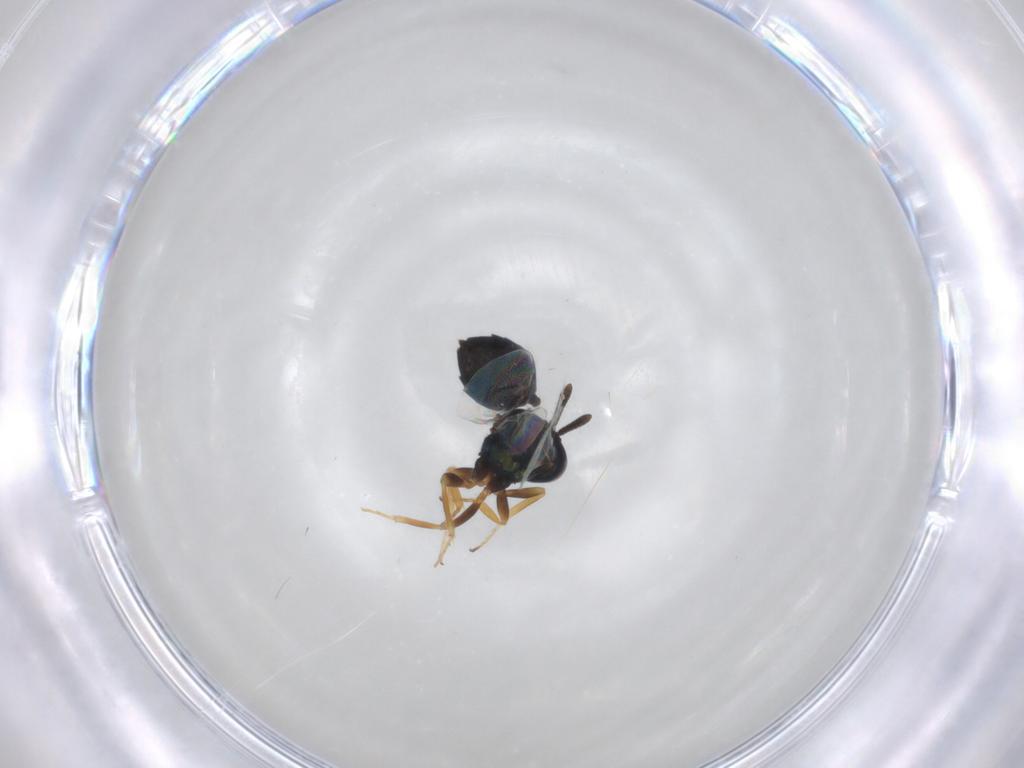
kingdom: Animalia
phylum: Arthropoda
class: Insecta
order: Hymenoptera
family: Pteromalidae
